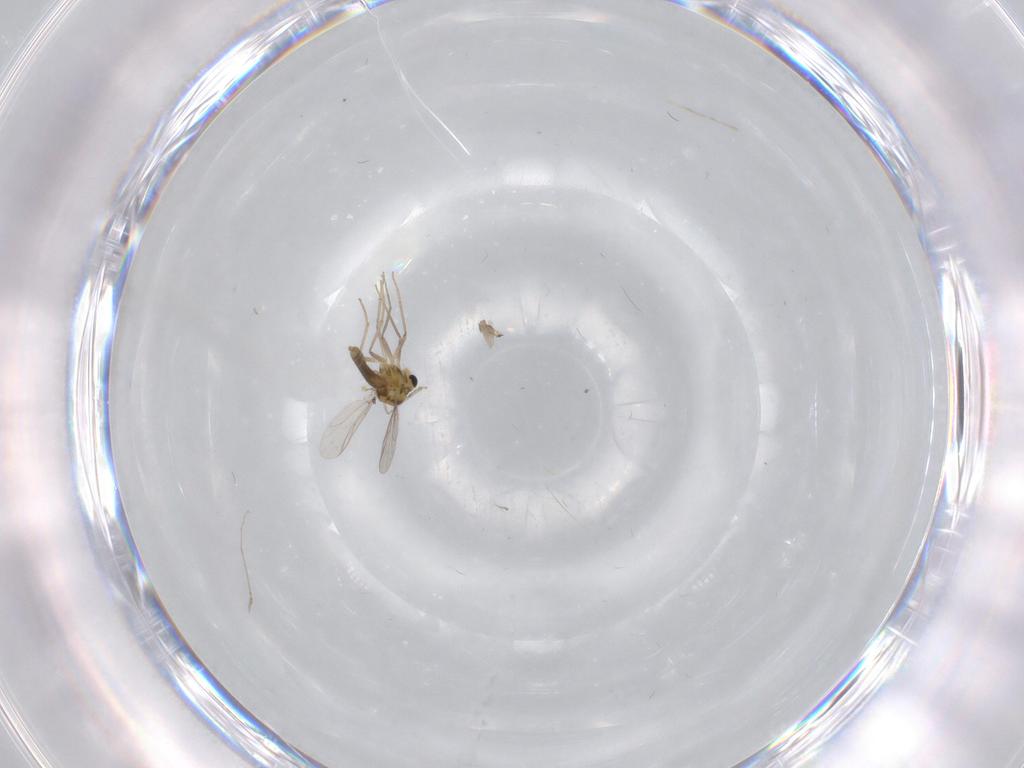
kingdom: Animalia
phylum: Arthropoda
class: Insecta
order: Diptera
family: Chironomidae
